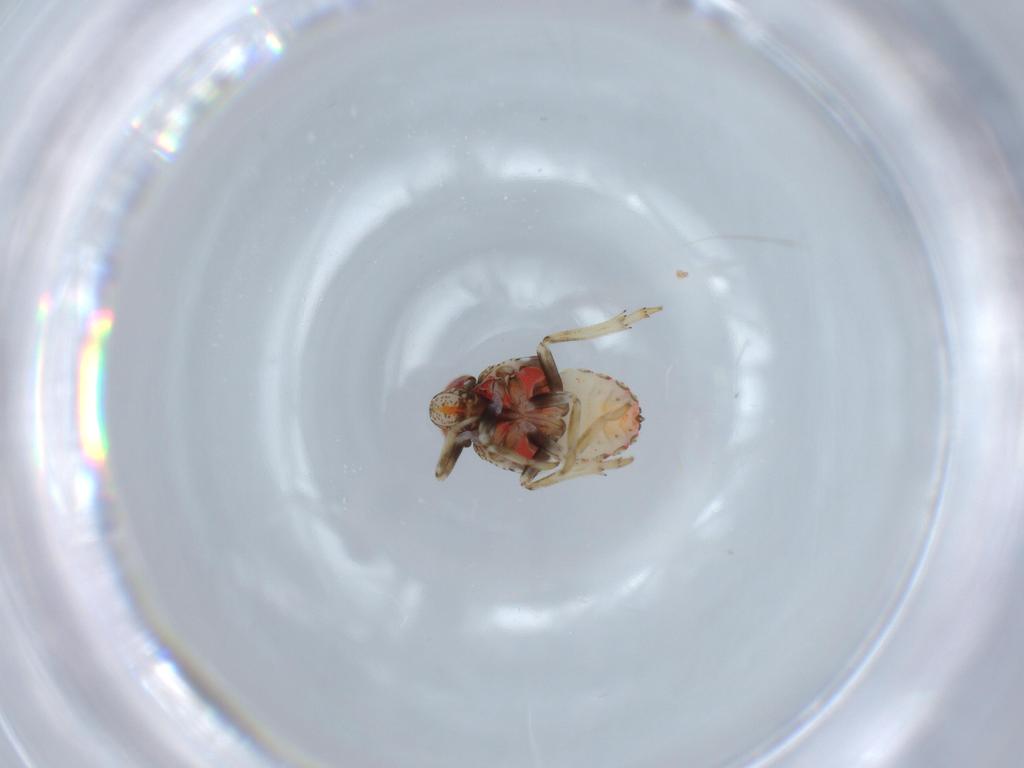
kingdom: Animalia
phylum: Arthropoda
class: Insecta
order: Hemiptera
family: Issidae
